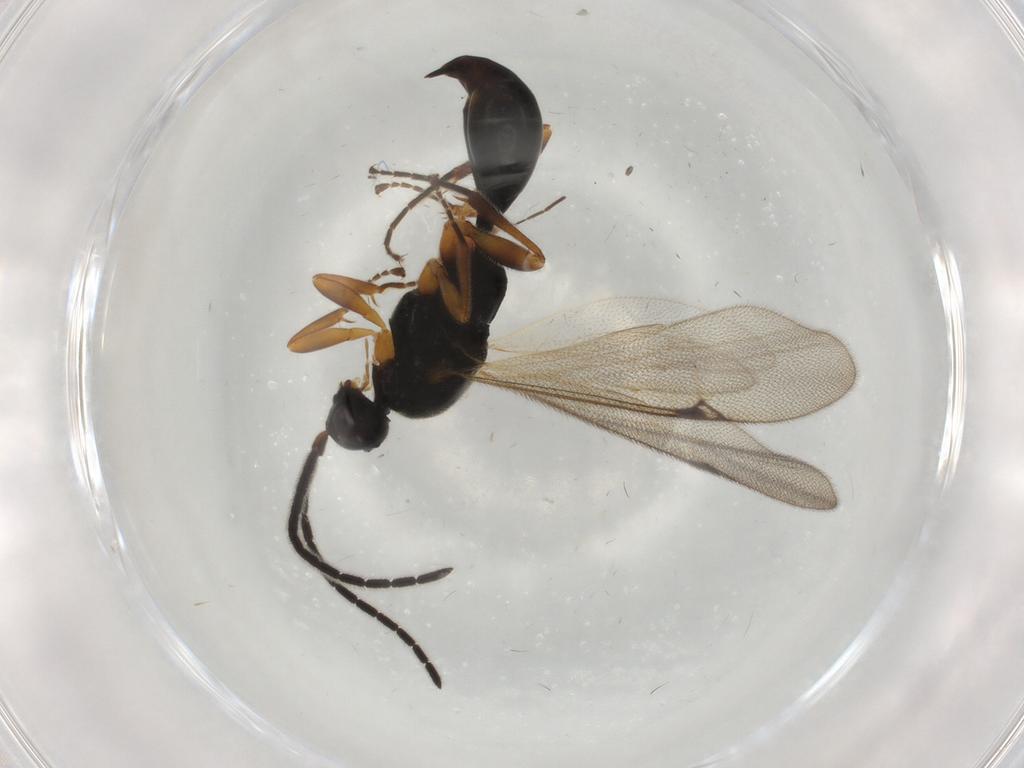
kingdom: Animalia
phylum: Arthropoda
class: Insecta
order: Hymenoptera
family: Proctotrupidae
